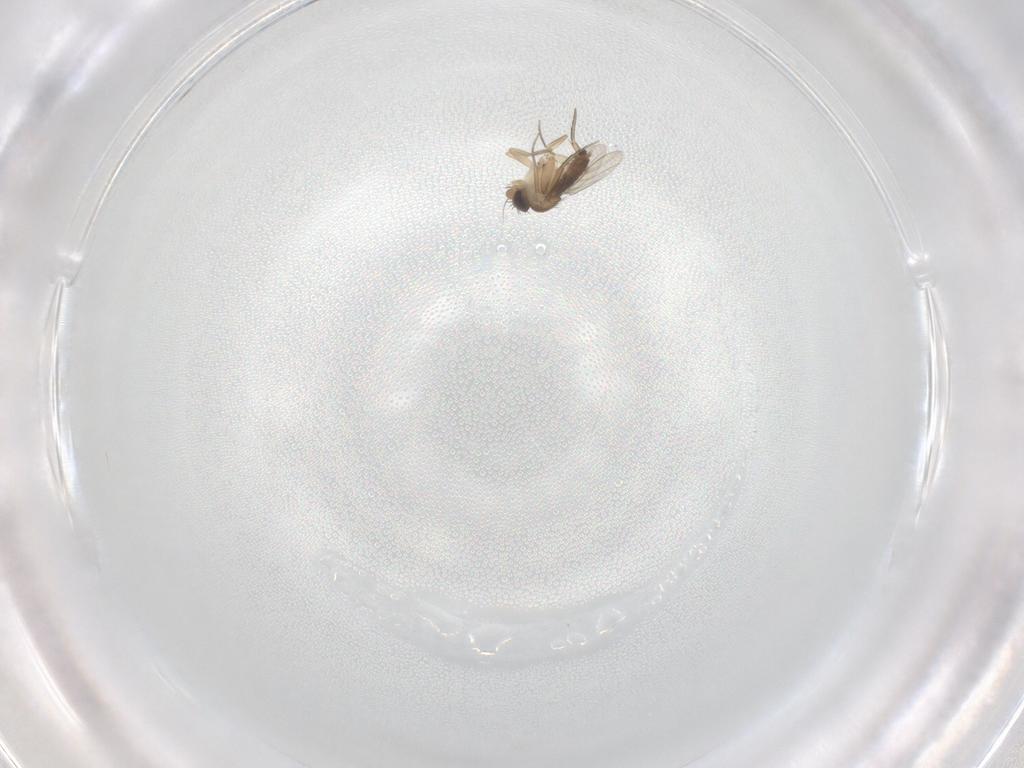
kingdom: Animalia
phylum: Arthropoda
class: Insecta
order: Diptera
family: Phoridae
